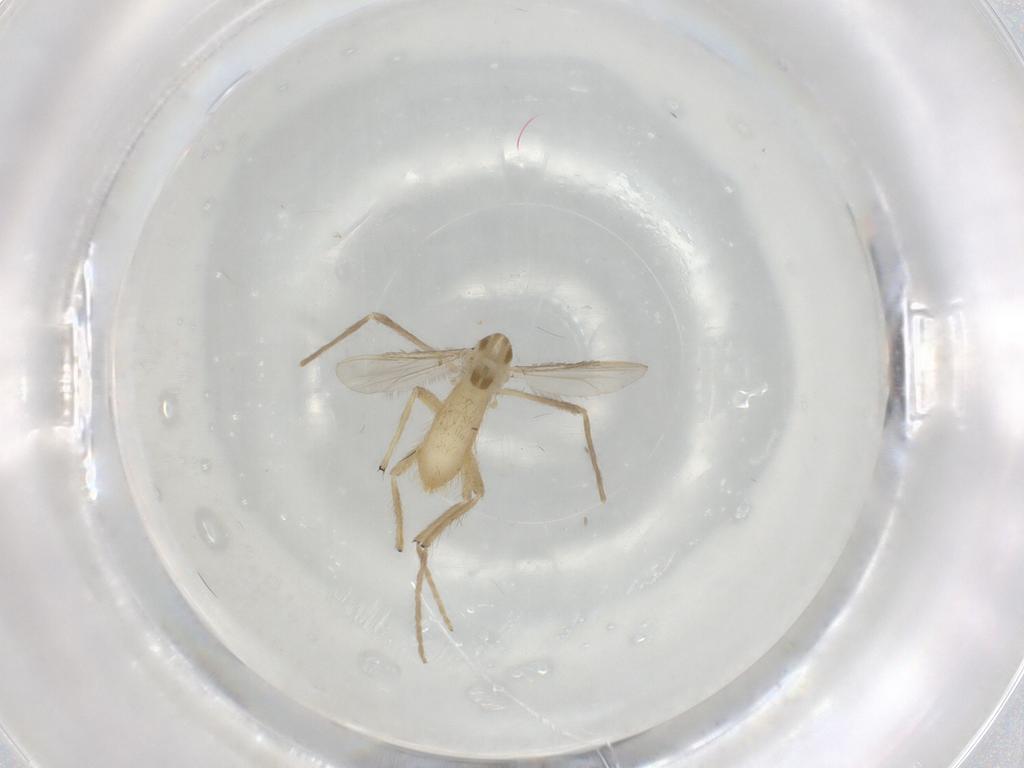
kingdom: Animalia
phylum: Arthropoda
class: Insecta
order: Diptera
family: Chironomidae
